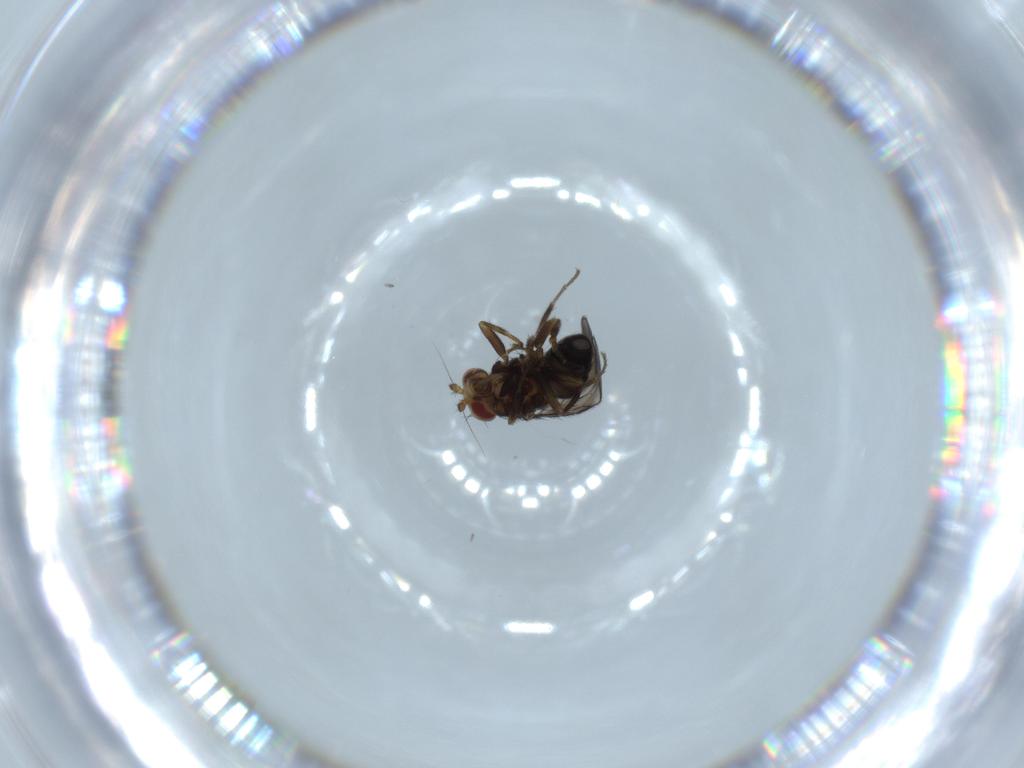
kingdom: Animalia
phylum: Arthropoda
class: Insecta
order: Diptera
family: Sphaeroceridae
